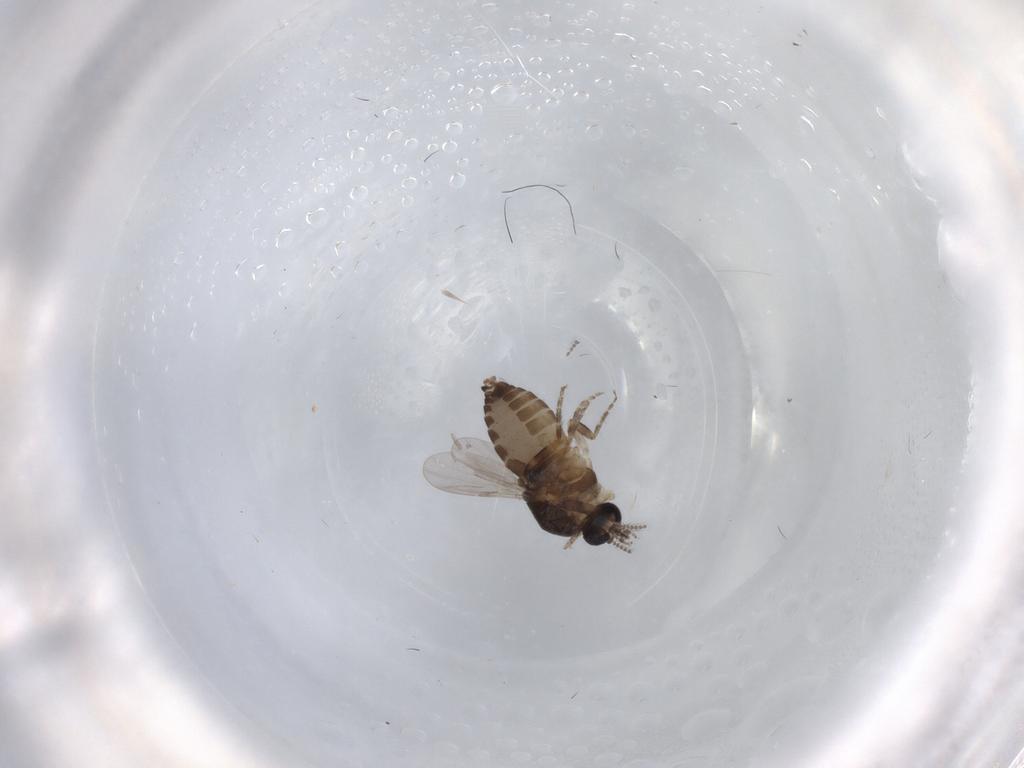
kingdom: Animalia
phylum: Arthropoda
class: Insecta
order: Diptera
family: Ceratopogonidae
